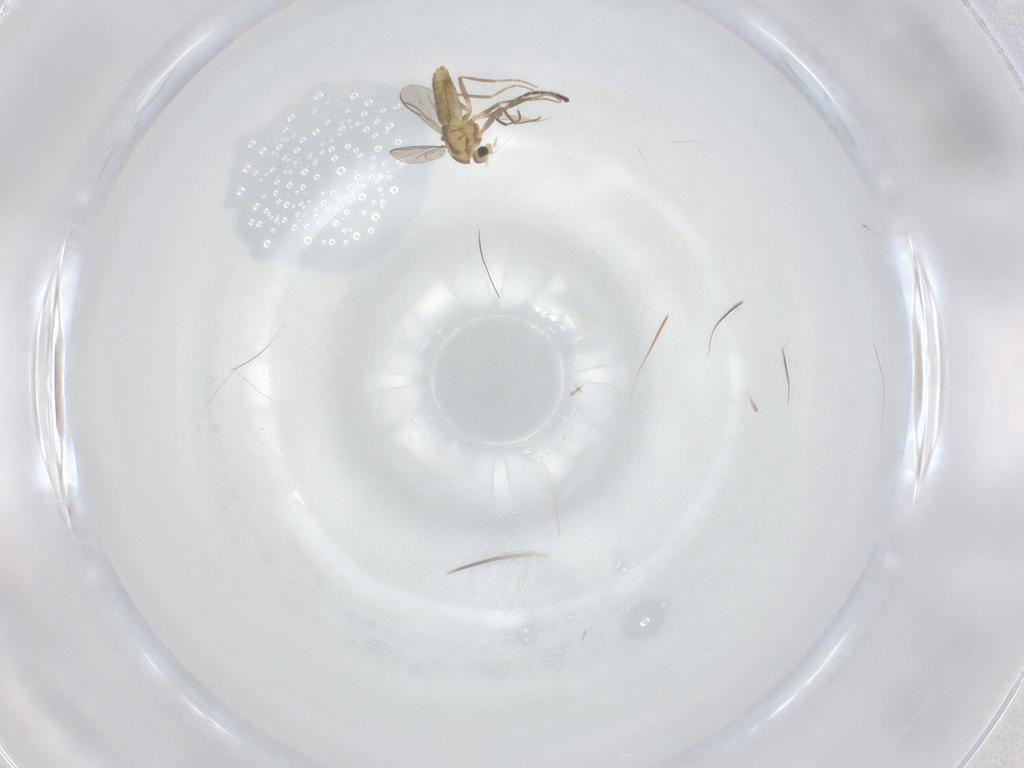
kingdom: Animalia
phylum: Arthropoda
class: Insecta
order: Diptera
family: Chironomidae
